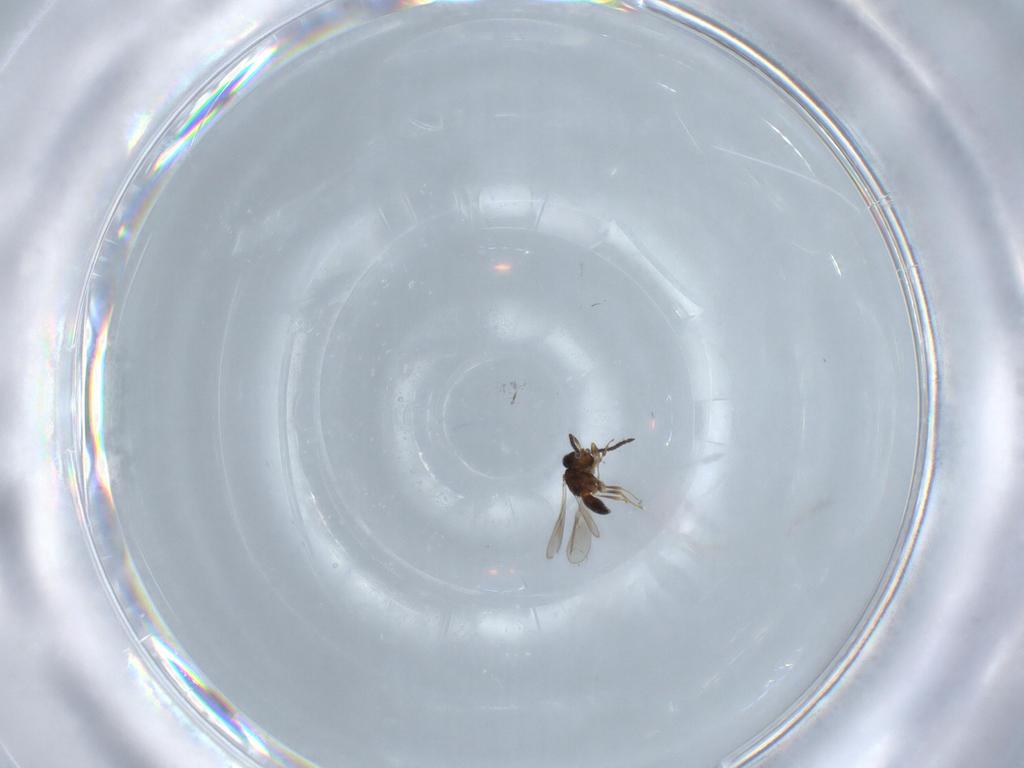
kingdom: Animalia
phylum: Arthropoda
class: Insecta
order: Hymenoptera
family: Scelionidae
